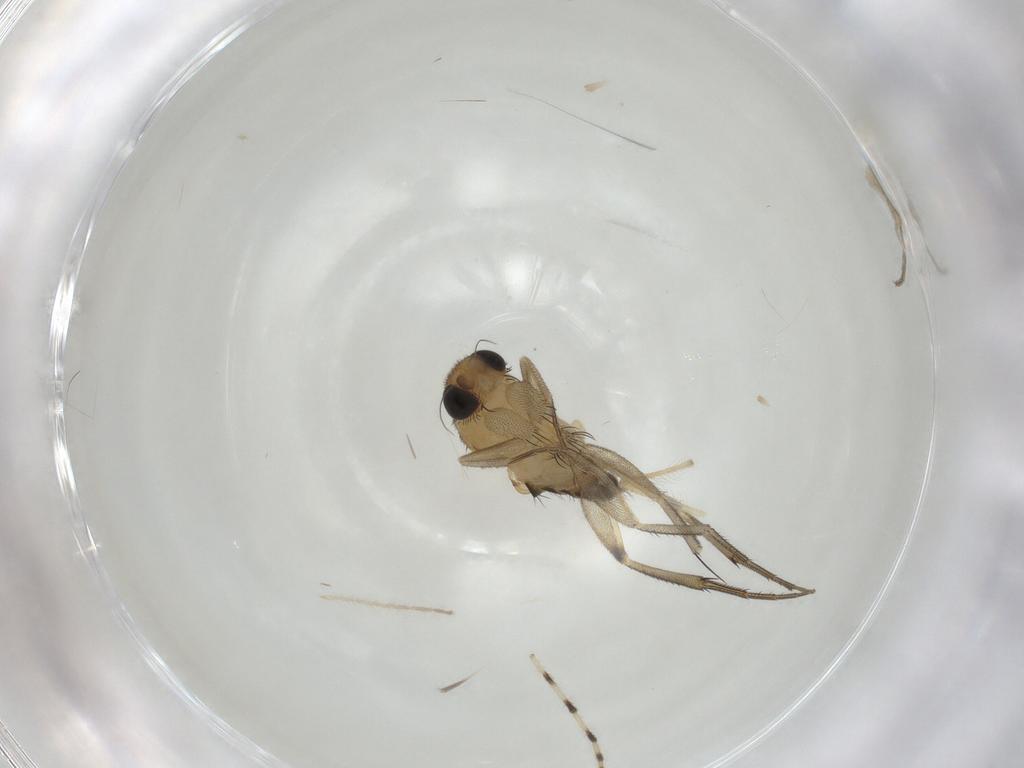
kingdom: Animalia
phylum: Arthropoda
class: Insecta
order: Diptera
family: Phoridae
